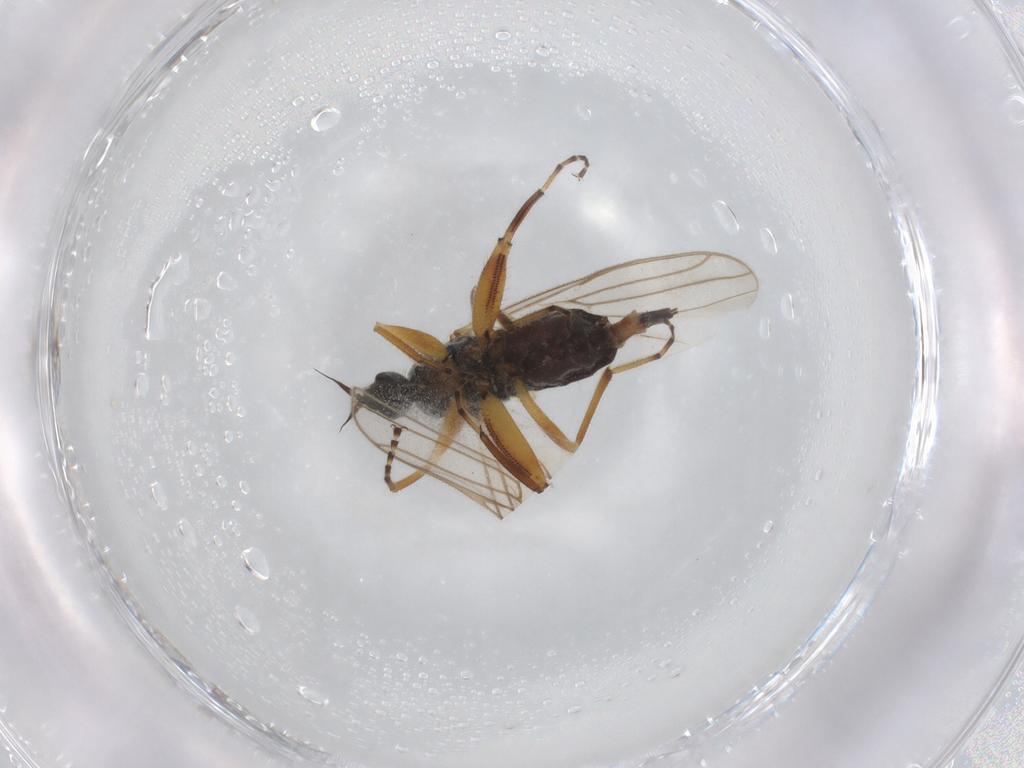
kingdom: Animalia
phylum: Arthropoda
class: Insecta
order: Diptera
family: Hybotidae
